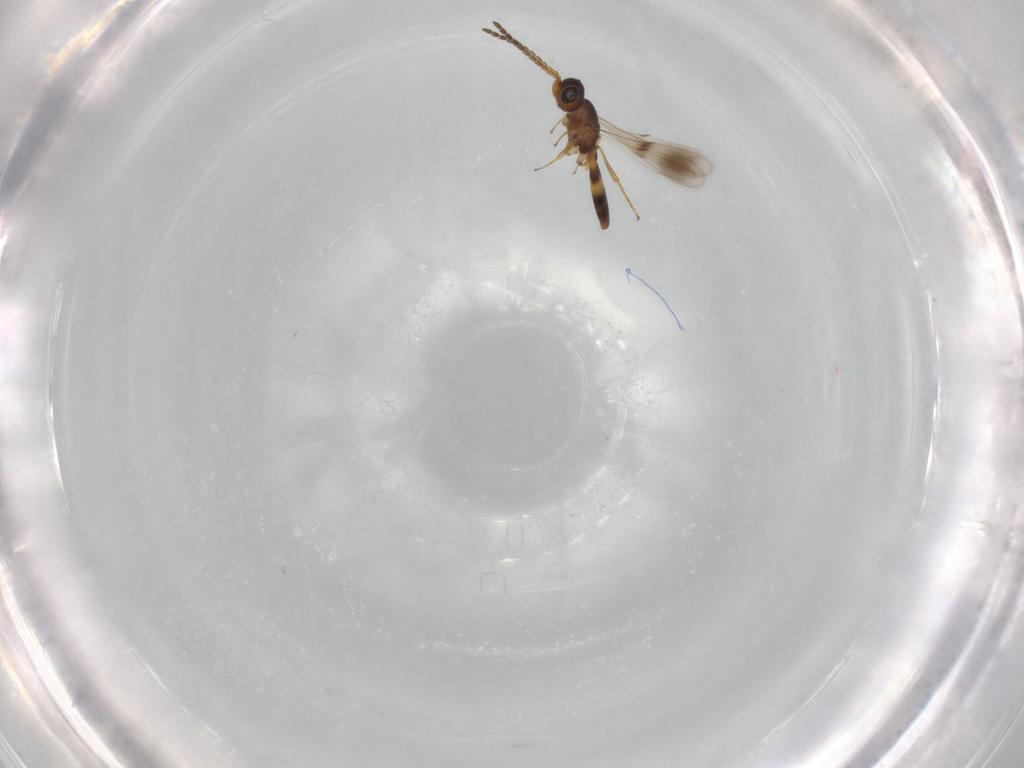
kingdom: Animalia
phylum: Arthropoda
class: Insecta
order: Hymenoptera
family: Scelionidae
